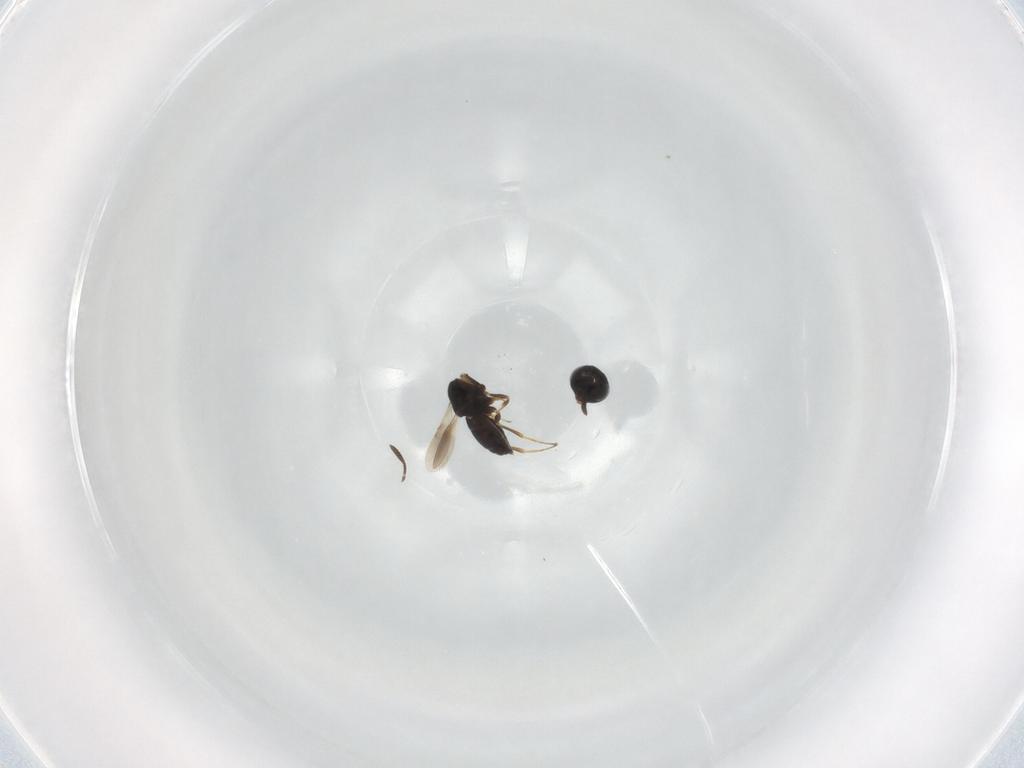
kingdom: Animalia
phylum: Arthropoda
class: Insecta
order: Hymenoptera
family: Scelionidae
